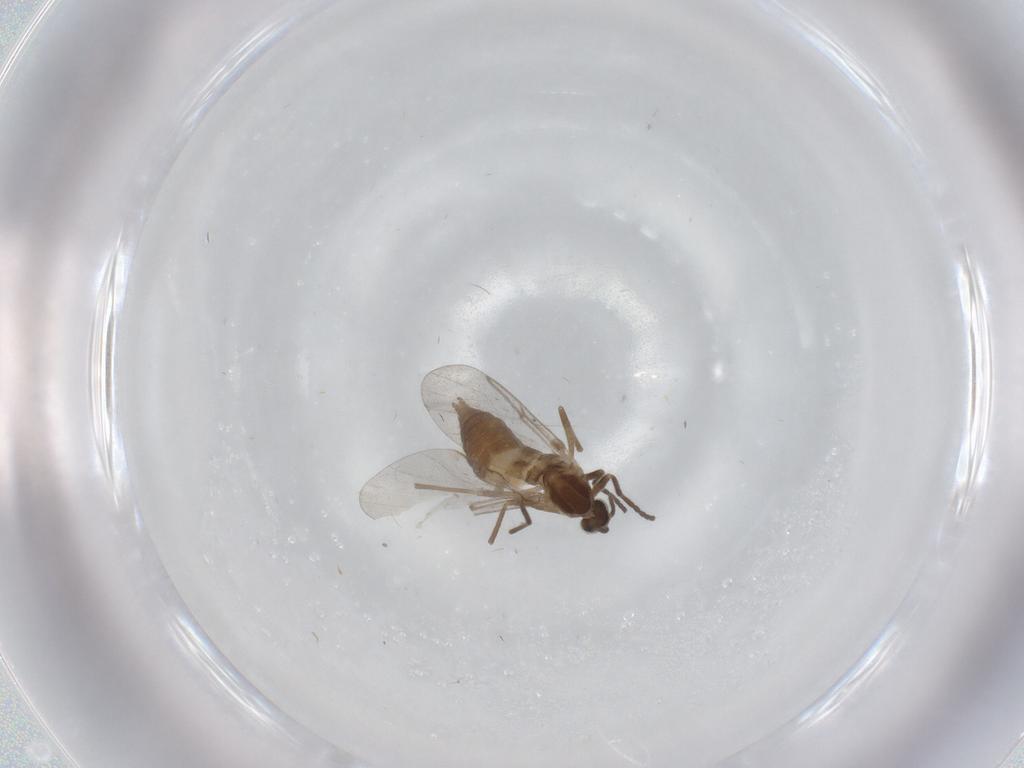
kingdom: Animalia
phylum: Arthropoda
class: Insecta
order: Diptera
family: Cecidomyiidae
